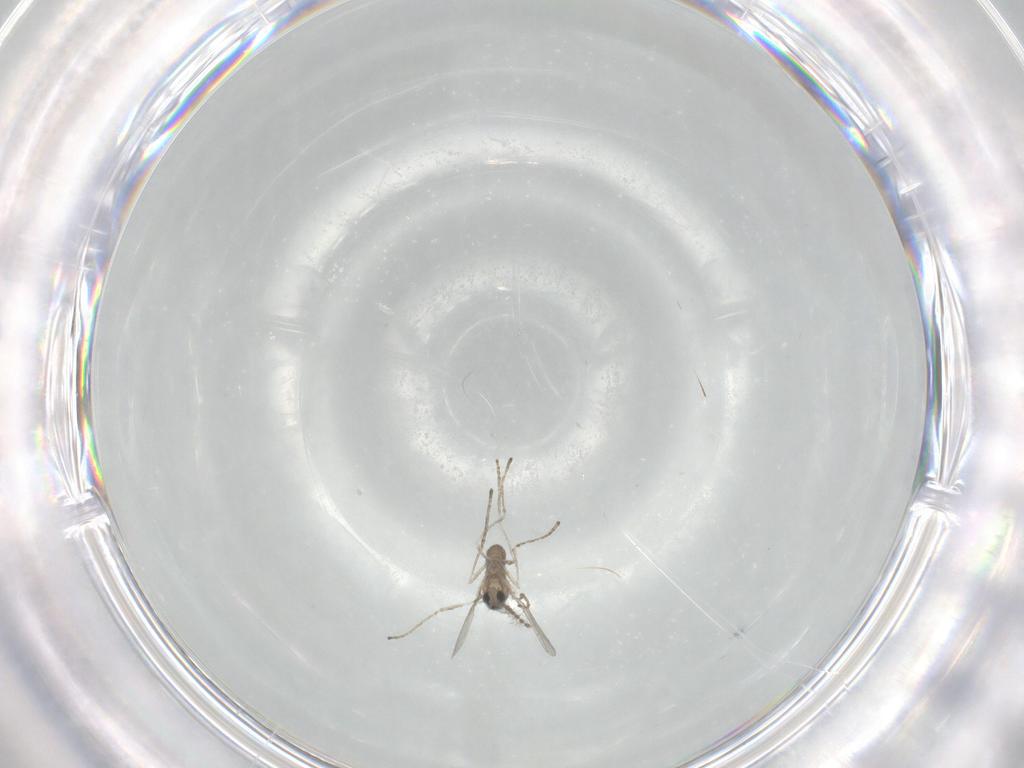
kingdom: Animalia
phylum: Arthropoda
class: Insecta
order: Diptera
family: Cecidomyiidae
